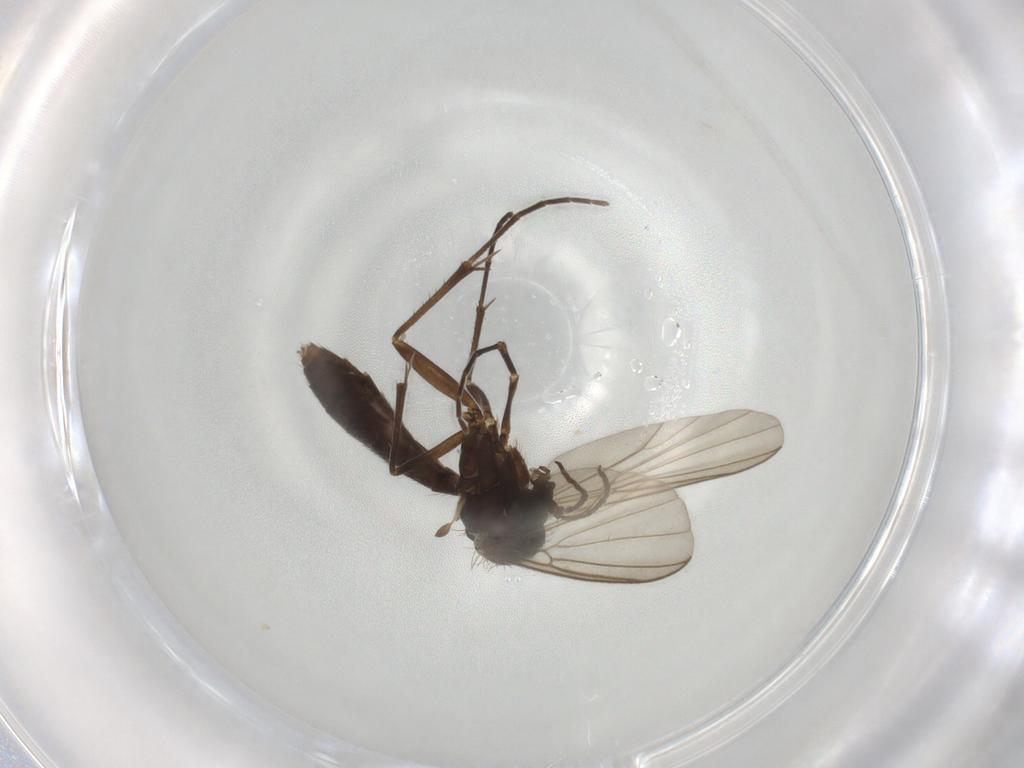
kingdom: Animalia
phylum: Arthropoda
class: Insecta
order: Diptera
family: Mycetophilidae
